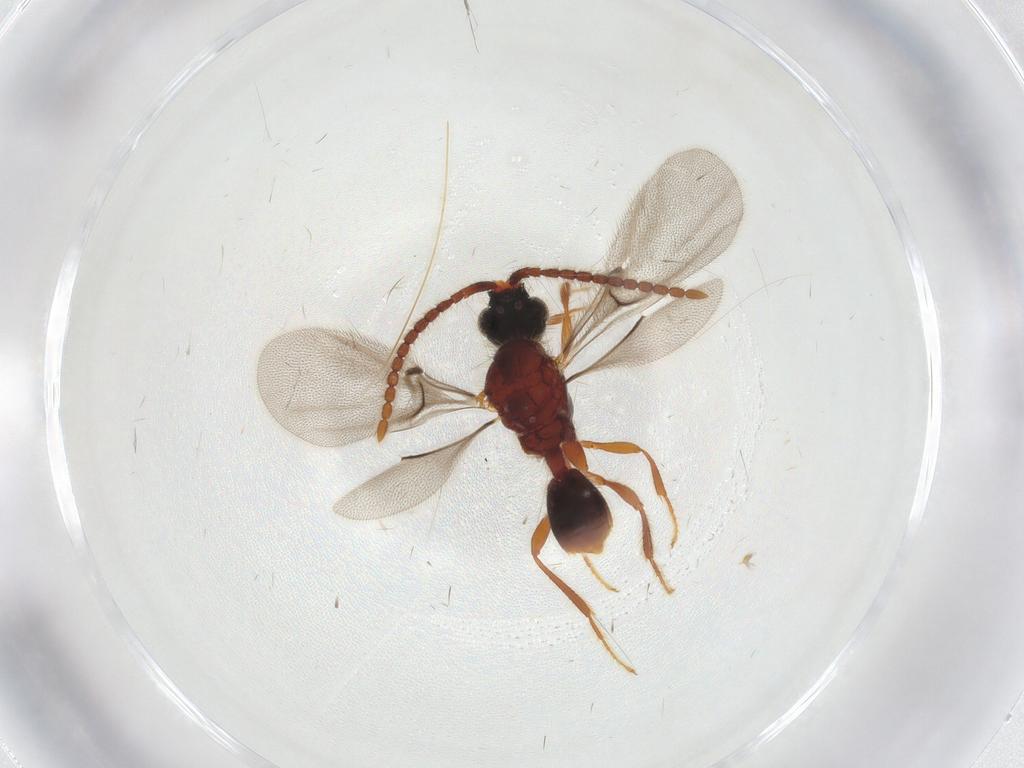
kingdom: Animalia
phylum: Arthropoda
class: Insecta
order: Hymenoptera
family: Diapriidae
